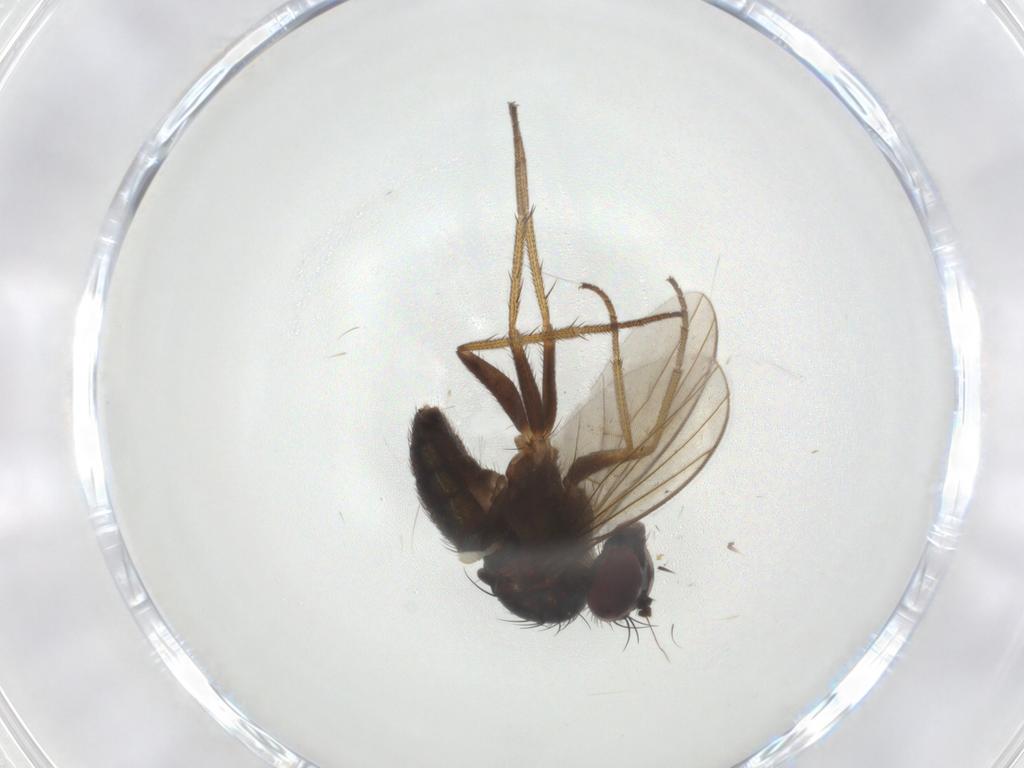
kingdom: Animalia
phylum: Arthropoda
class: Insecta
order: Diptera
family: Dolichopodidae
